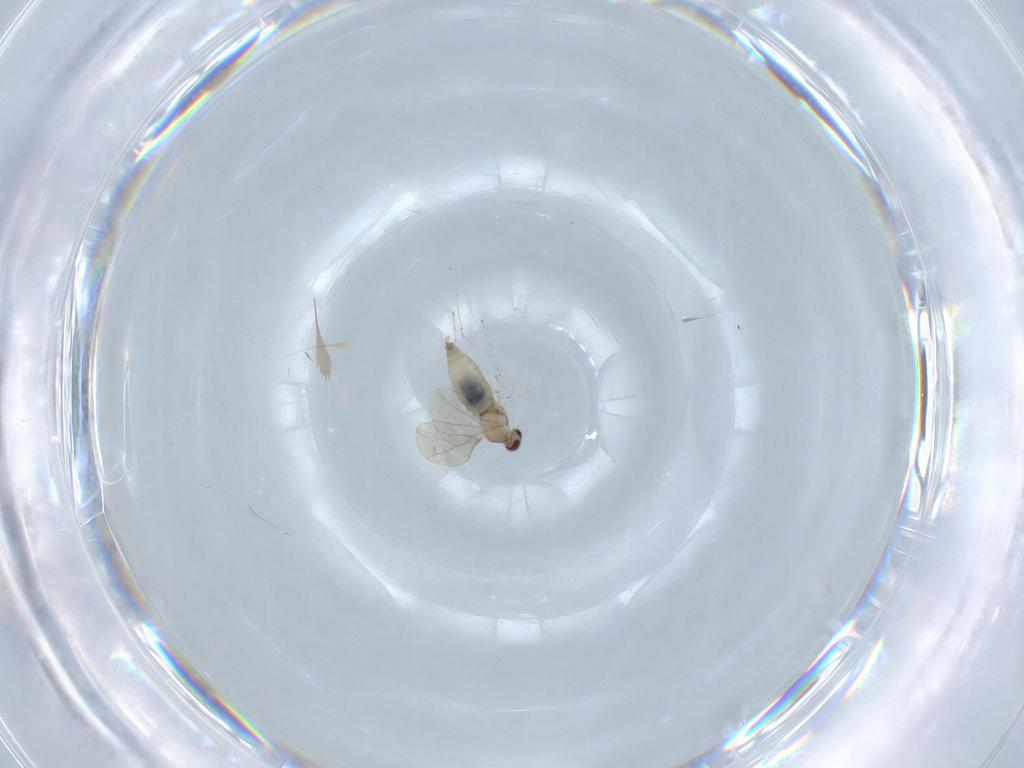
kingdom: Animalia
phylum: Arthropoda
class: Insecta
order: Diptera
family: Cecidomyiidae
